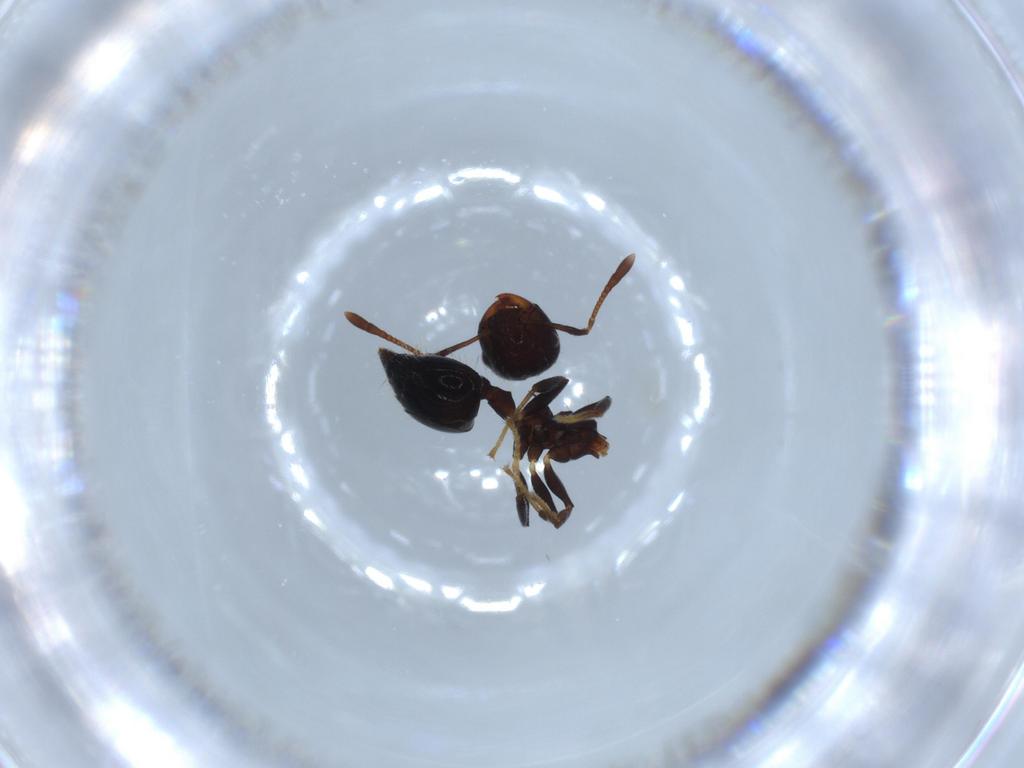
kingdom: Animalia
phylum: Arthropoda
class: Insecta
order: Hymenoptera
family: Formicidae
